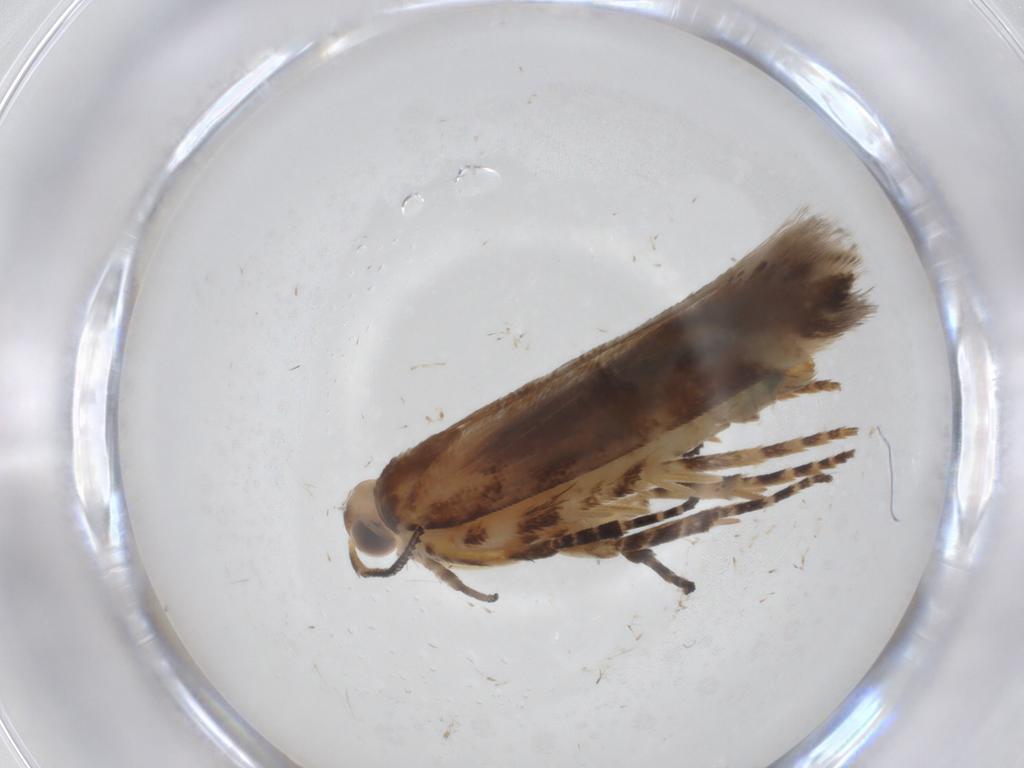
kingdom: Animalia
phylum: Arthropoda
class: Insecta
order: Lepidoptera
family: Gelechiidae
